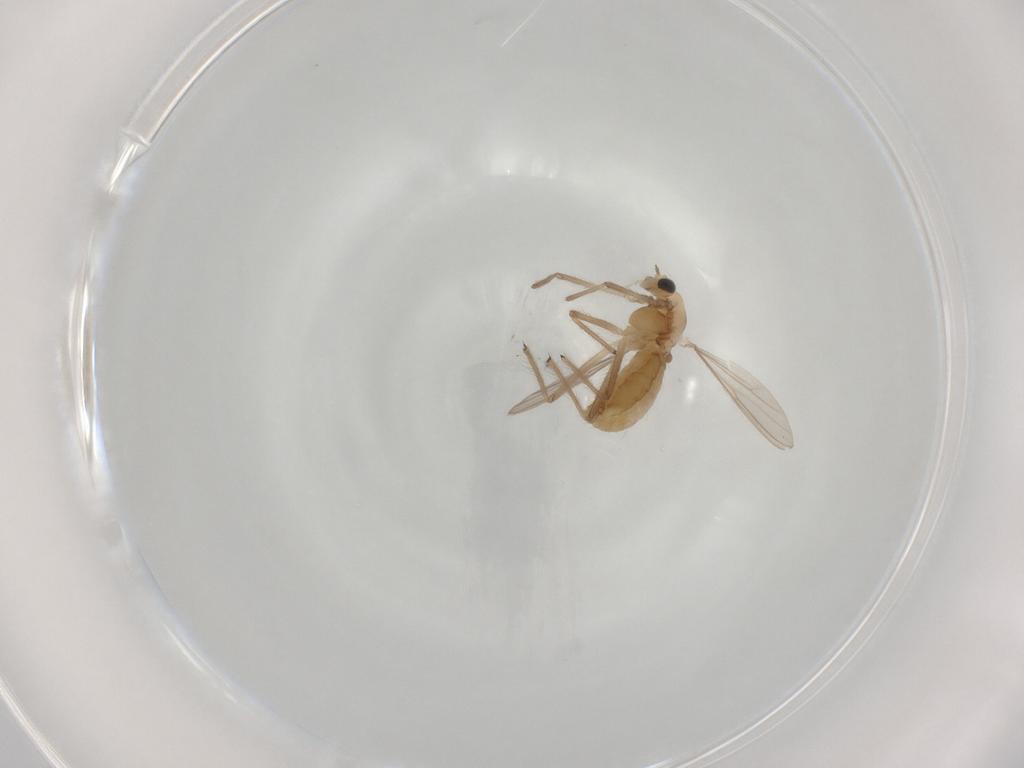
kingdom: Animalia
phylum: Arthropoda
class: Insecta
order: Diptera
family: Chironomidae
